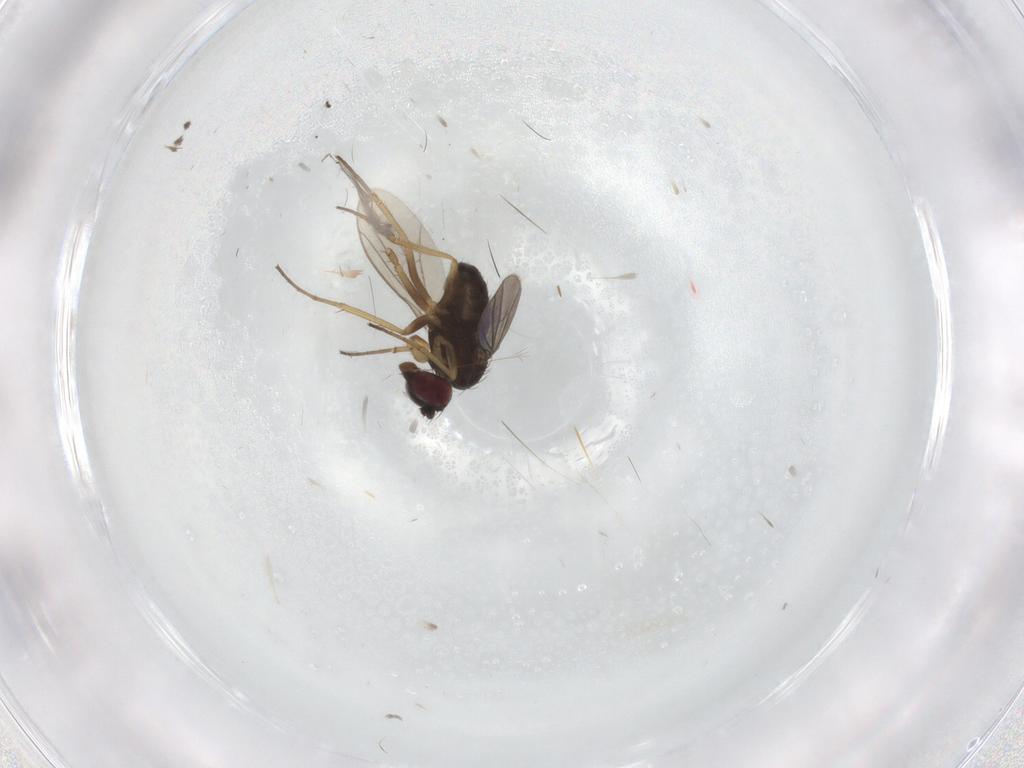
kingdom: Animalia
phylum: Arthropoda
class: Insecta
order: Diptera
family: Dolichopodidae
